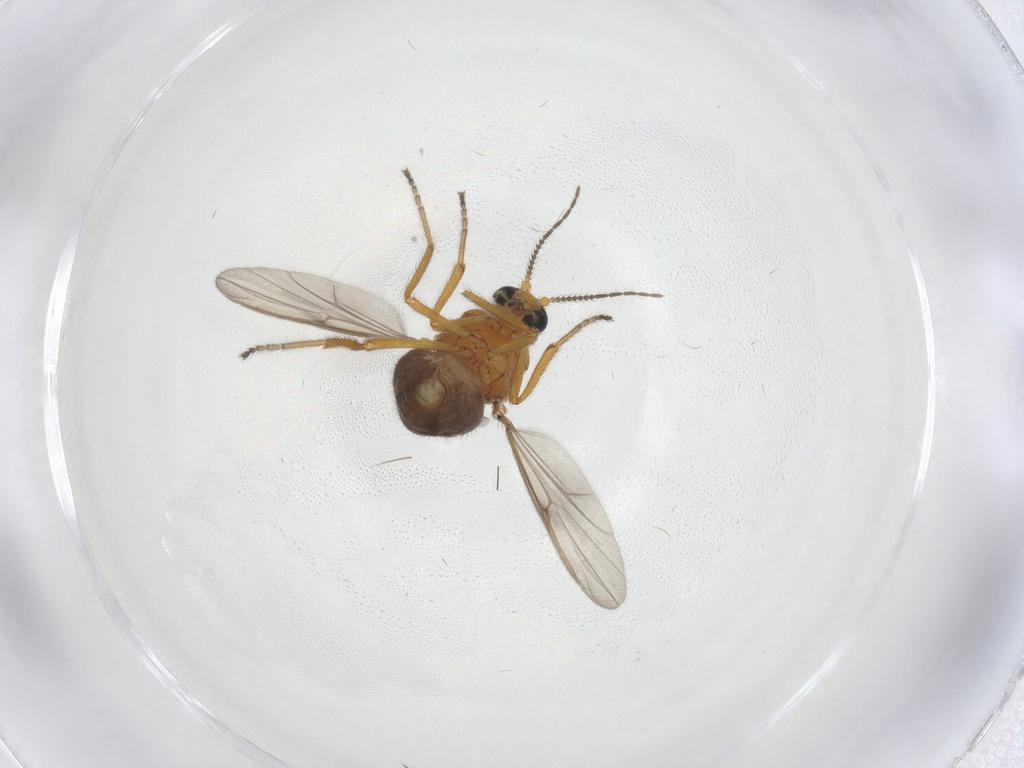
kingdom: Animalia
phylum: Arthropoda
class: Insecta
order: Diptera
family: Ceratopogonidae
